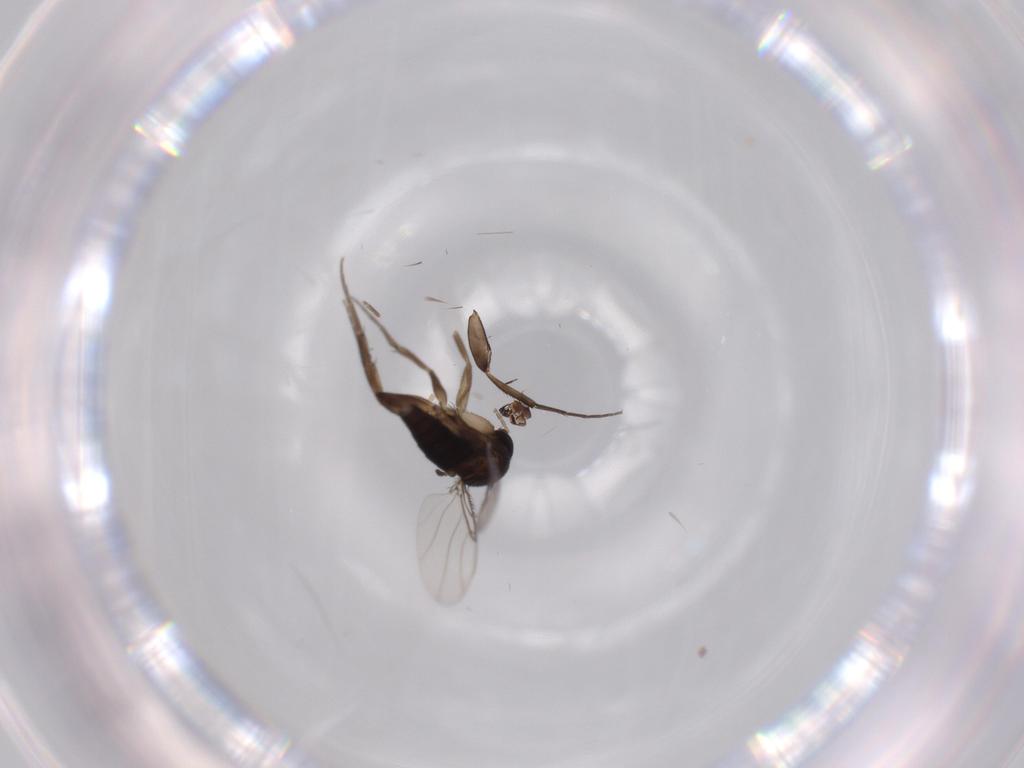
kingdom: Animalia
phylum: Arthropoda
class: Insecta
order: Diptera
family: Phoridae
